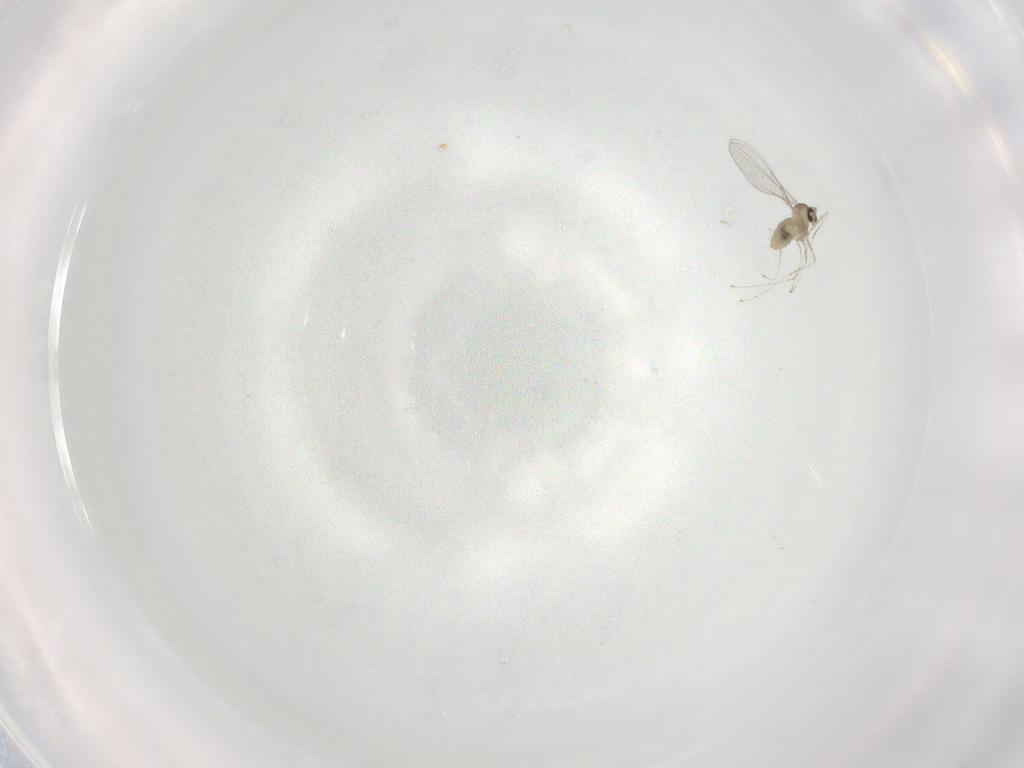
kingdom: Animalia
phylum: Arthropoda
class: Insecta
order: Diptera
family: Cecidomyiidae
